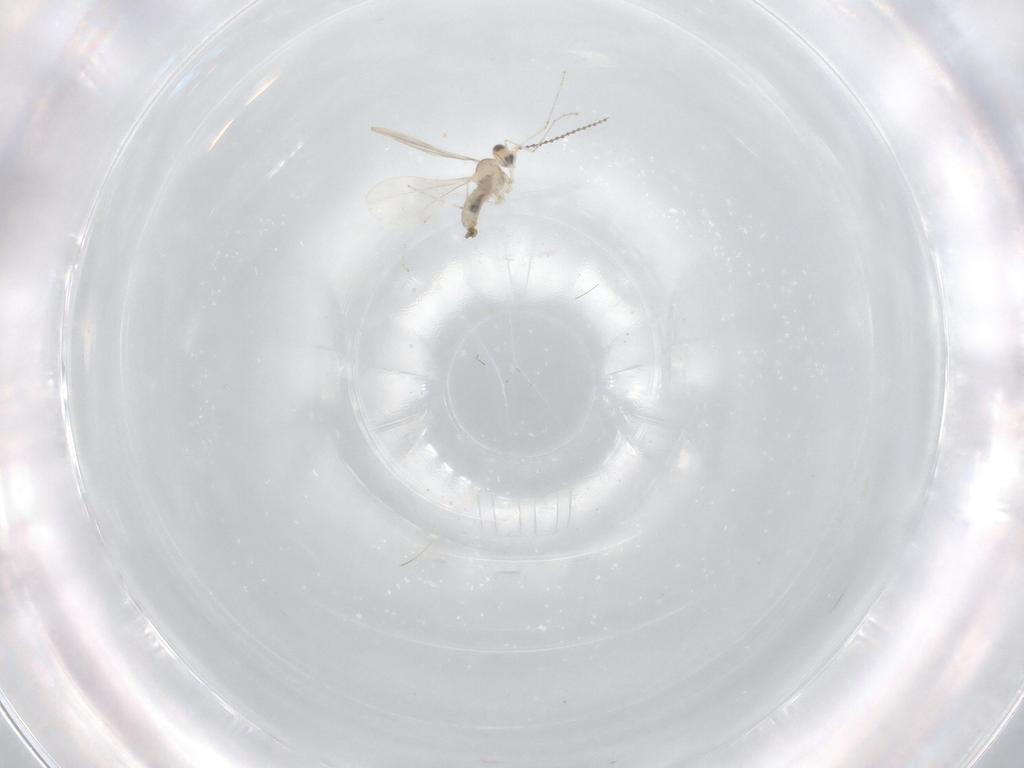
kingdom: Animalia
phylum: Arthropoda
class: Insecta
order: Diptera
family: Cecidomyiidae
